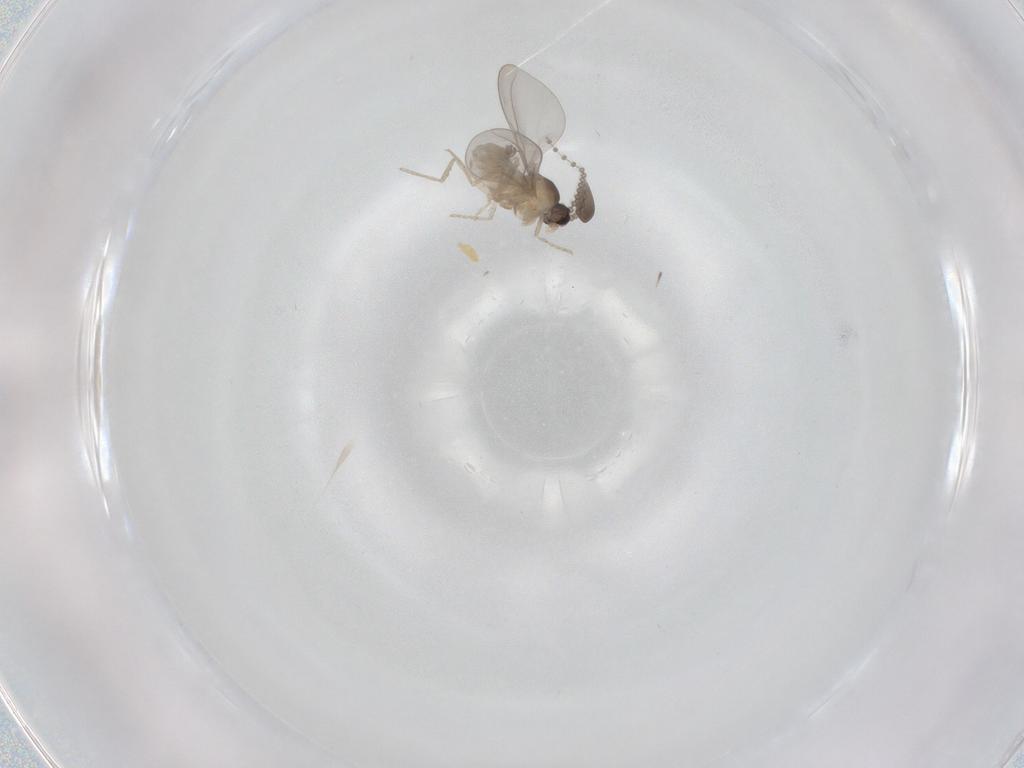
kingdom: Animalia
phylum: Arthropoda
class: Insecta
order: Diptera
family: Cecidomyiidae
